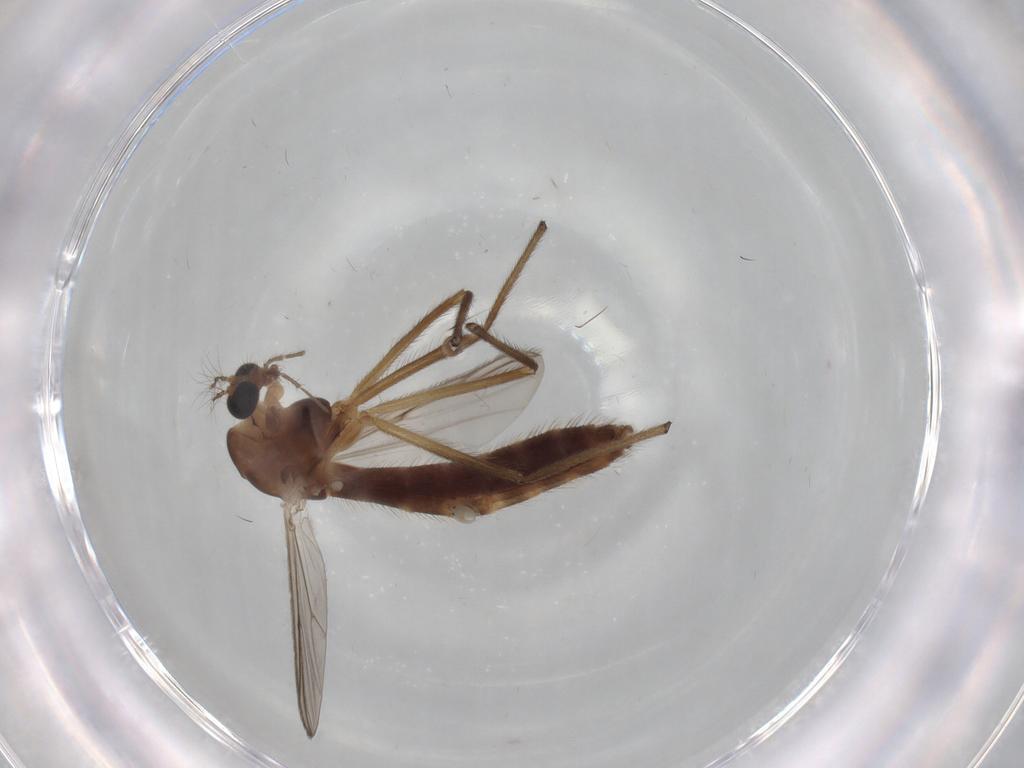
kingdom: Animalia
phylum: Arthropoda
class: Insecta
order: Diptera
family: Chironomidae
